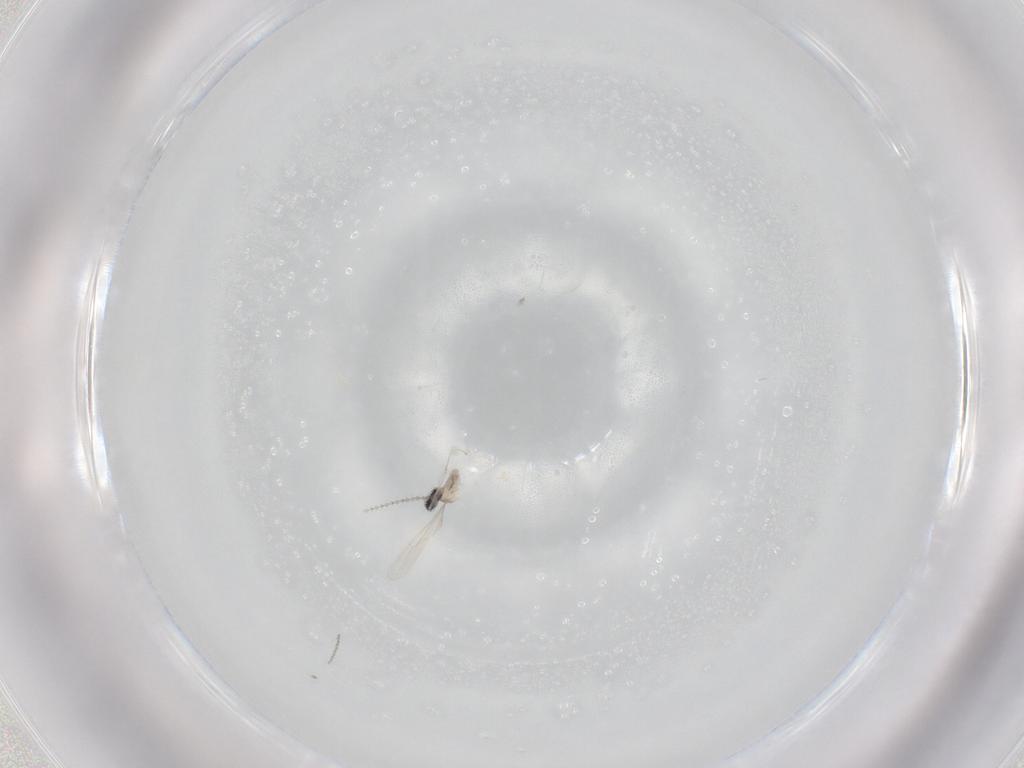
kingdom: Animalia
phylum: Arthropoda
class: Insecta
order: Diptera
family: Cecidomyiidae
